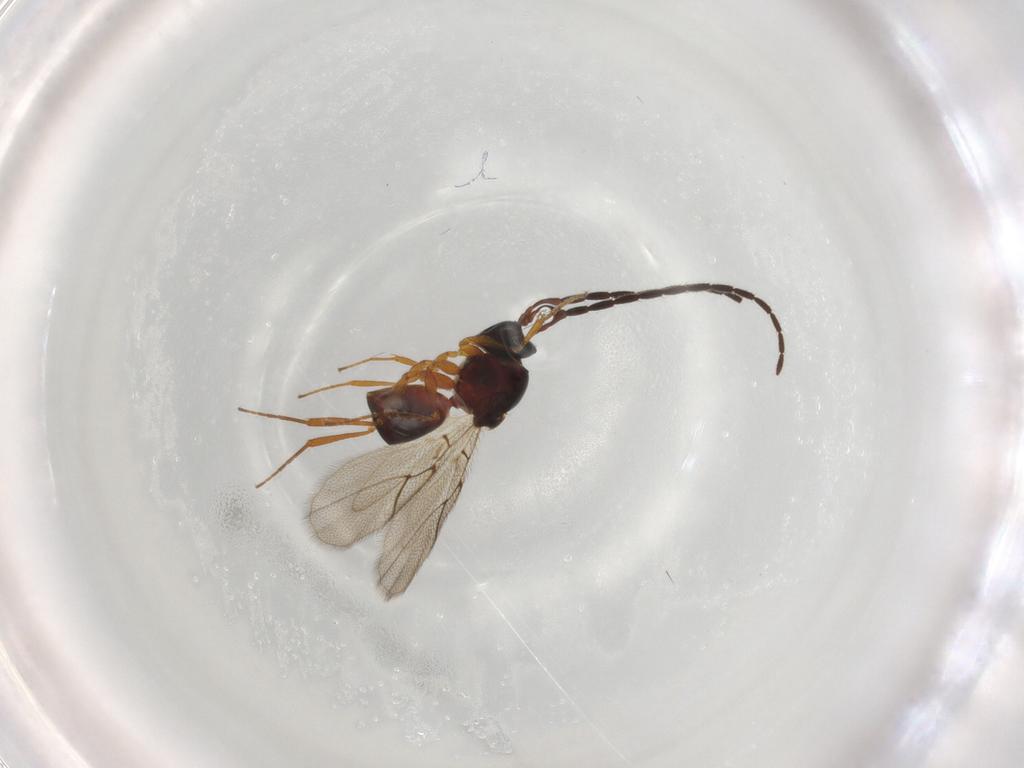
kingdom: Animalia
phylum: Arthropoda
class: Insecta
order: Hymenoptera
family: Figitidae
